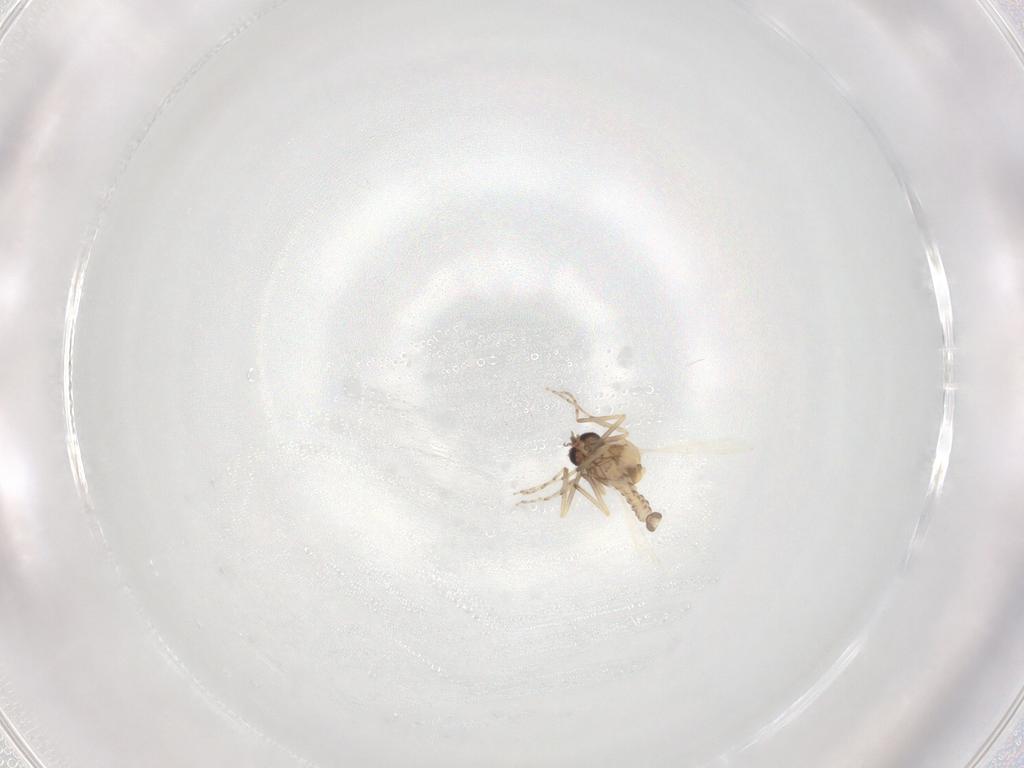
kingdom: Animalia
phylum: Arthropoda
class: Insecta
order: Diptera
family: Ceratopogonidae
